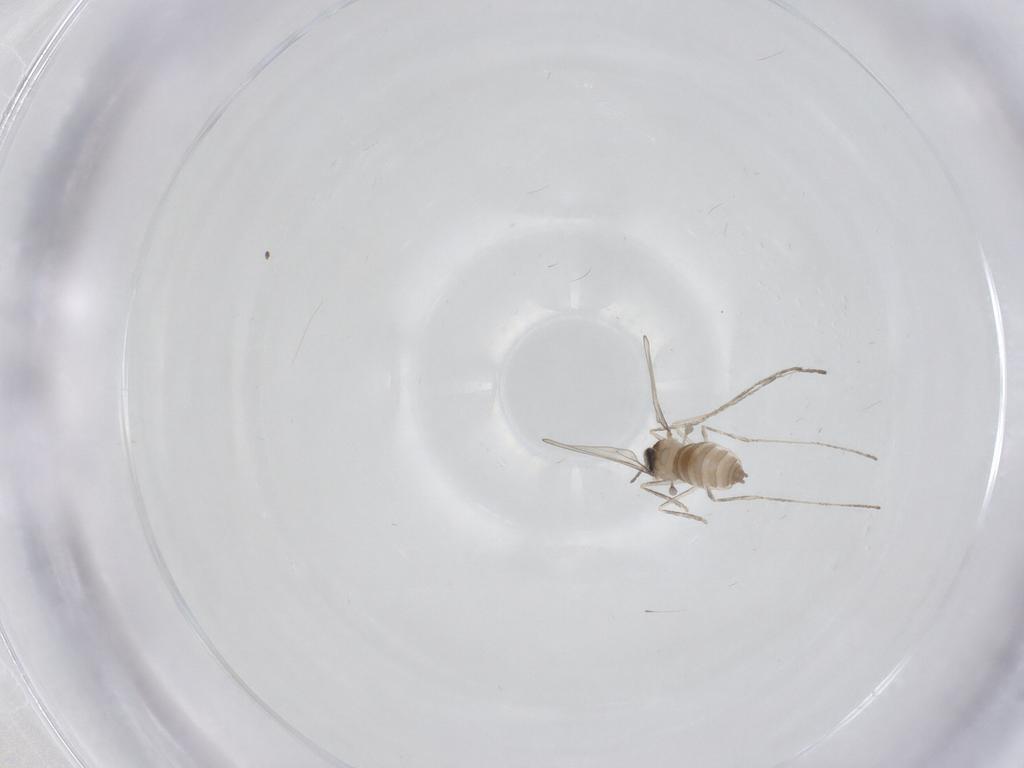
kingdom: Animalia
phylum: Arthropoda
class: Insecta
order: Diptera
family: Cecidomyiidae
